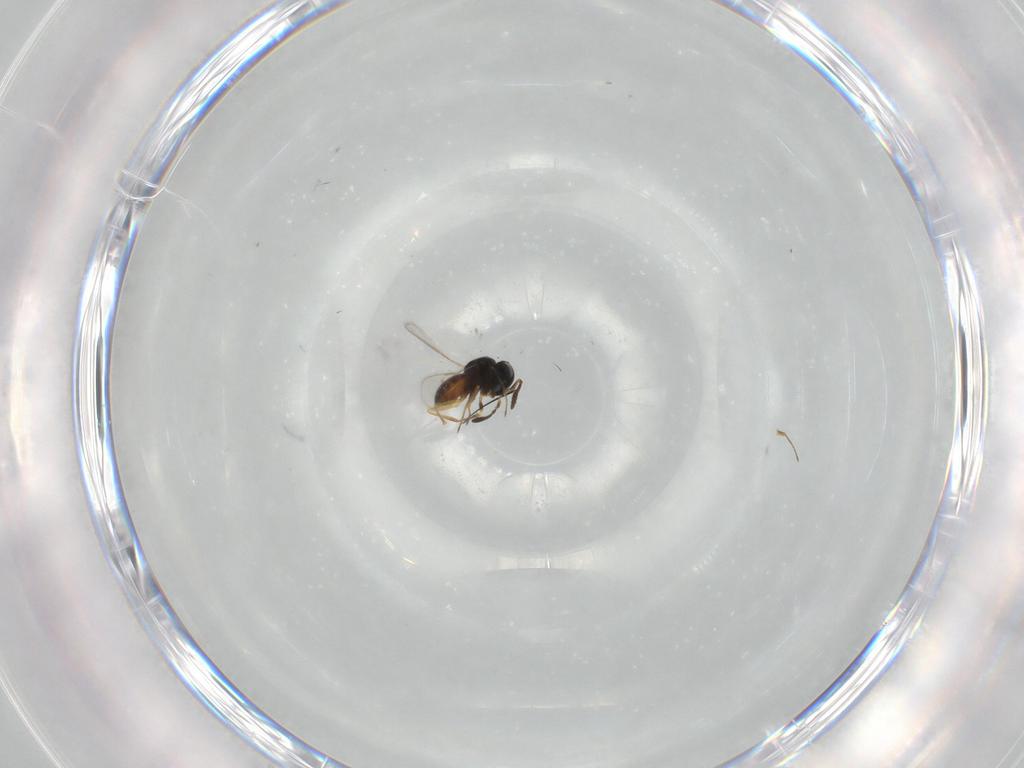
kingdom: Animalia
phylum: Arthropoda
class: Insecta
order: Hymenoptera
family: Scelionidae
